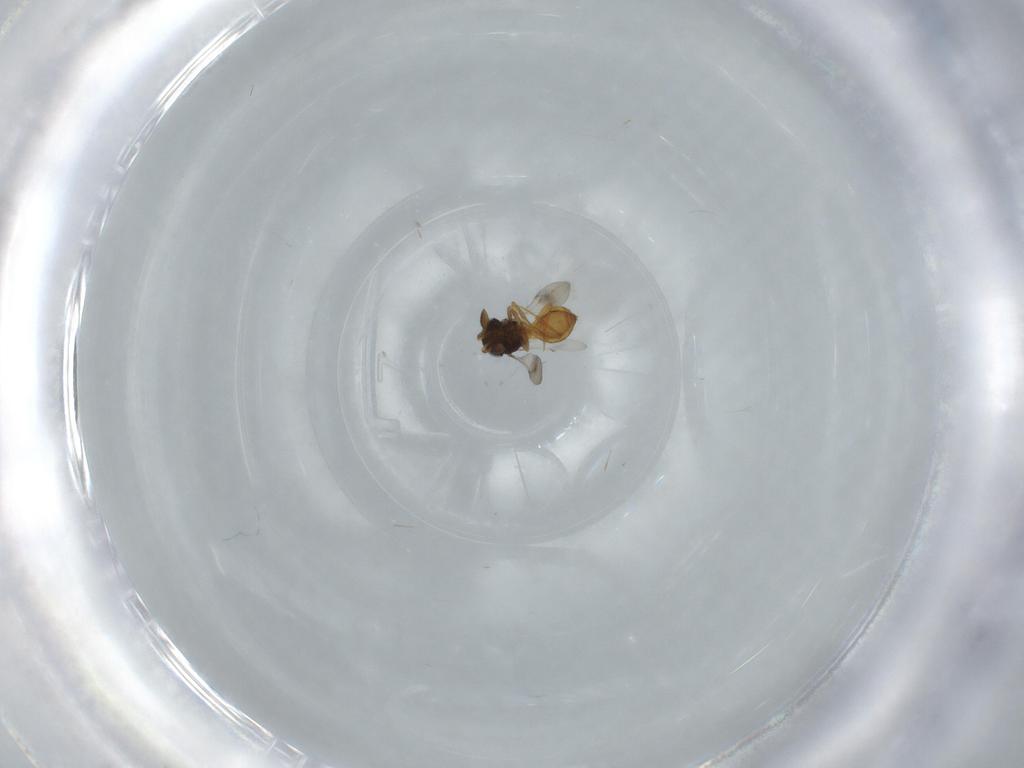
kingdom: Animalia
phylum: Arthropoda
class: Insecta
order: Hymenoptera
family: Scelionidae
